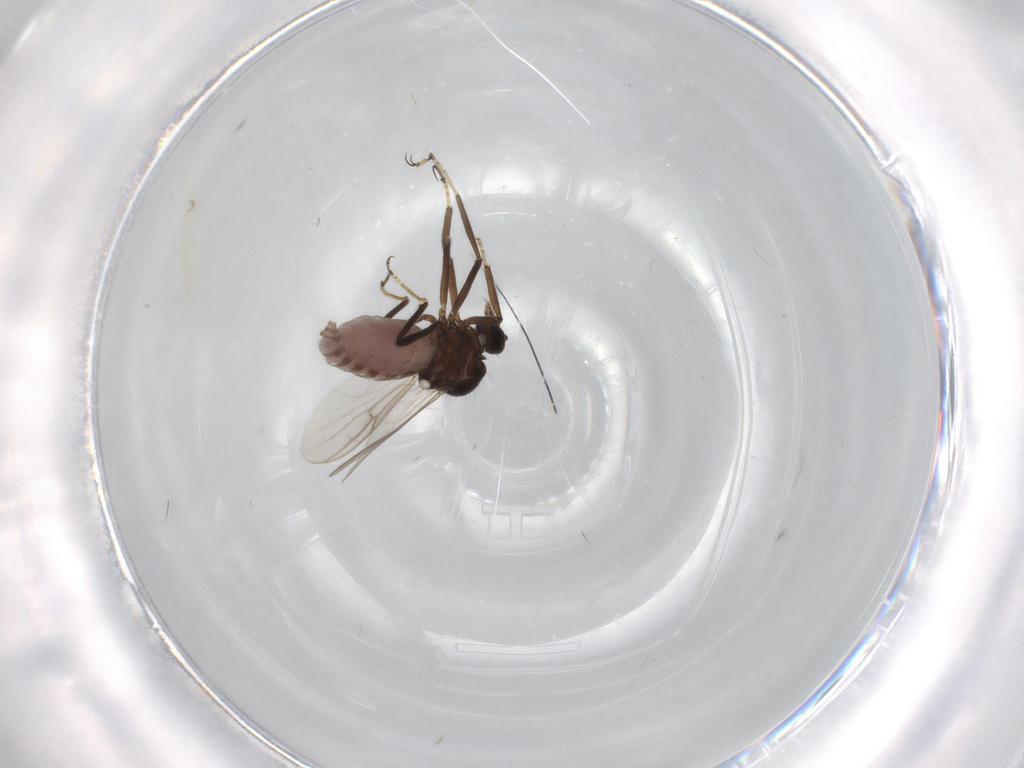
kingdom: Animalia
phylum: Arthropoda
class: Insecta
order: Diptera
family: Ceratopogonidae
